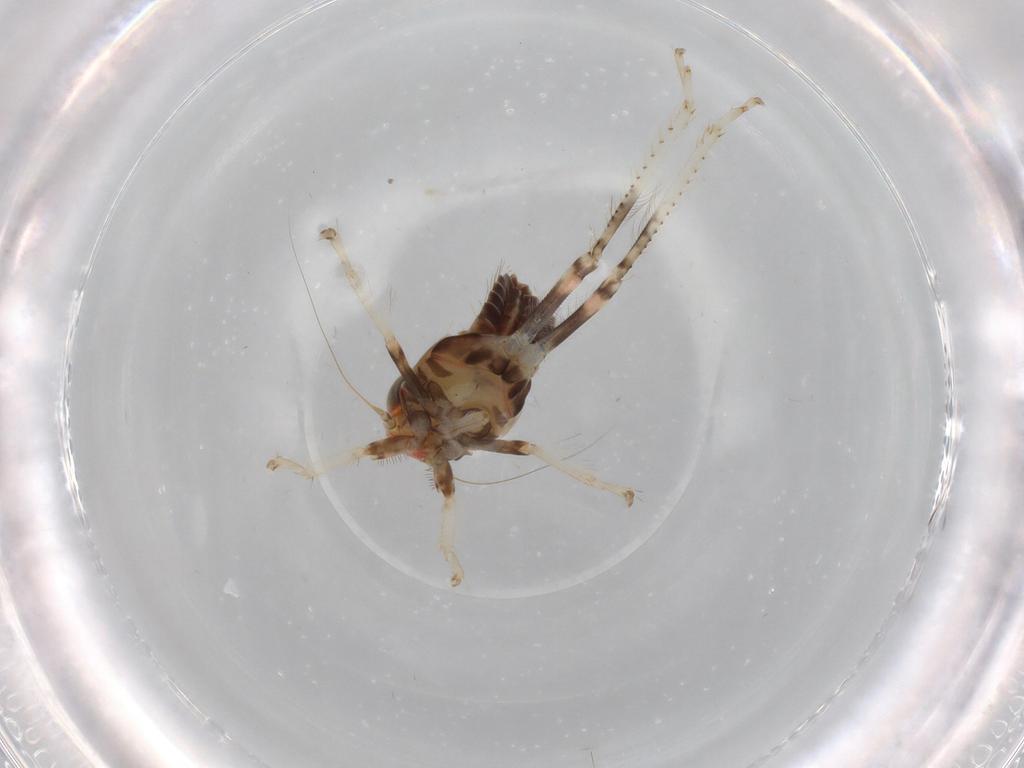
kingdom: Animalia
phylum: Arthropoda
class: Insecta
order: Hemiptera
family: Cicadellidae
